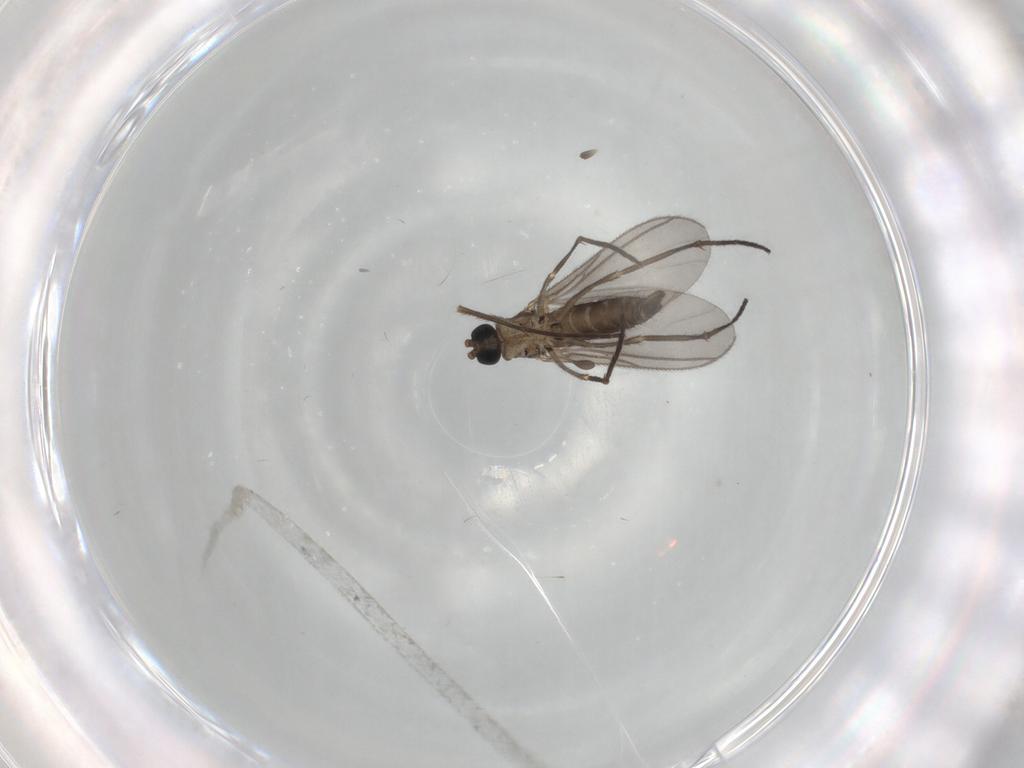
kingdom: Animalia
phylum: Arthropoda
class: Insecta
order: Diptera
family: Sciaridae
